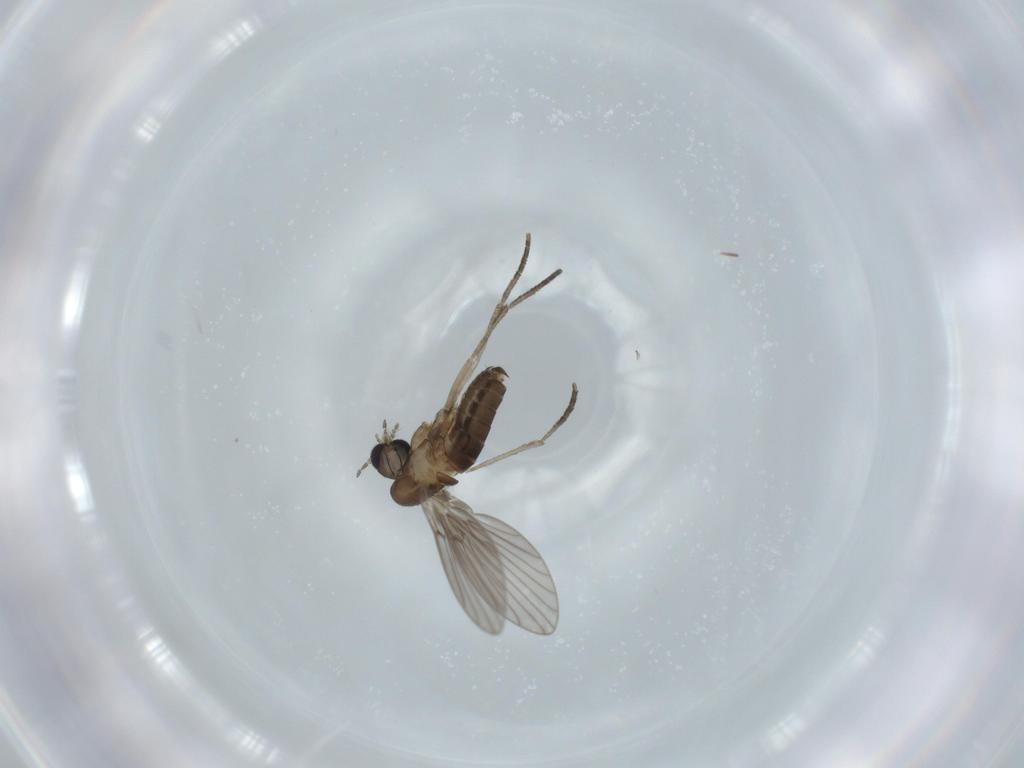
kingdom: Animalia
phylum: Arthropoda
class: Insecta
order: Diptera
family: Psychodidae
